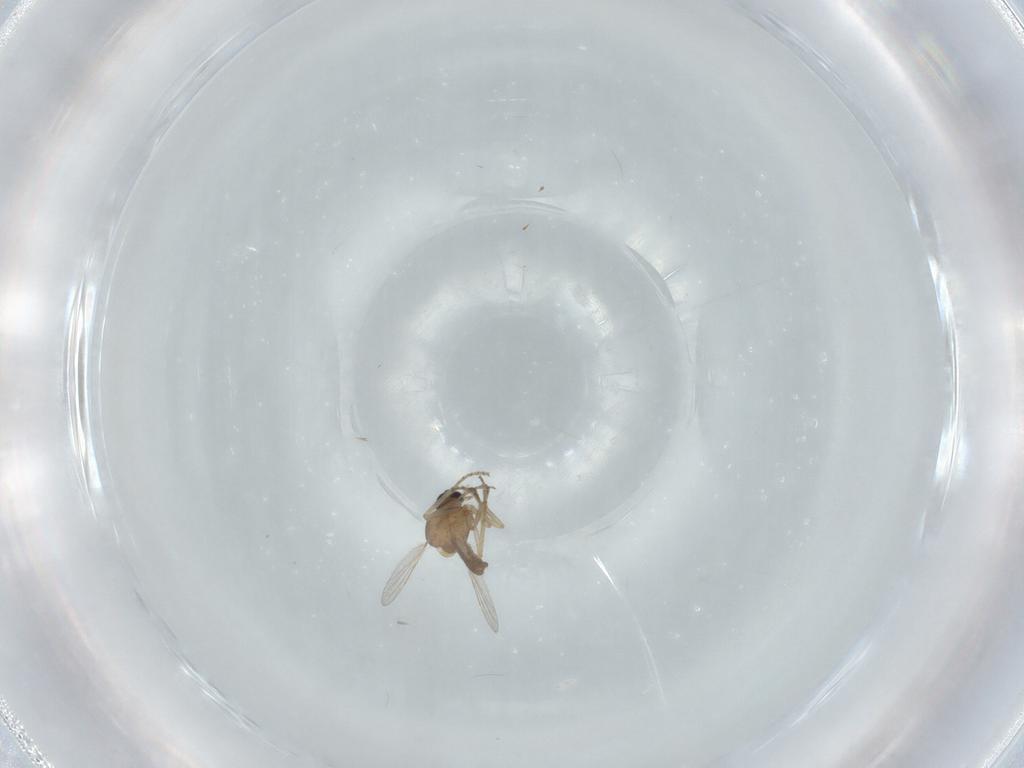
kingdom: Animalia
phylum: Arthropoda
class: Insecta
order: Diptera
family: Cecidomyiidae
